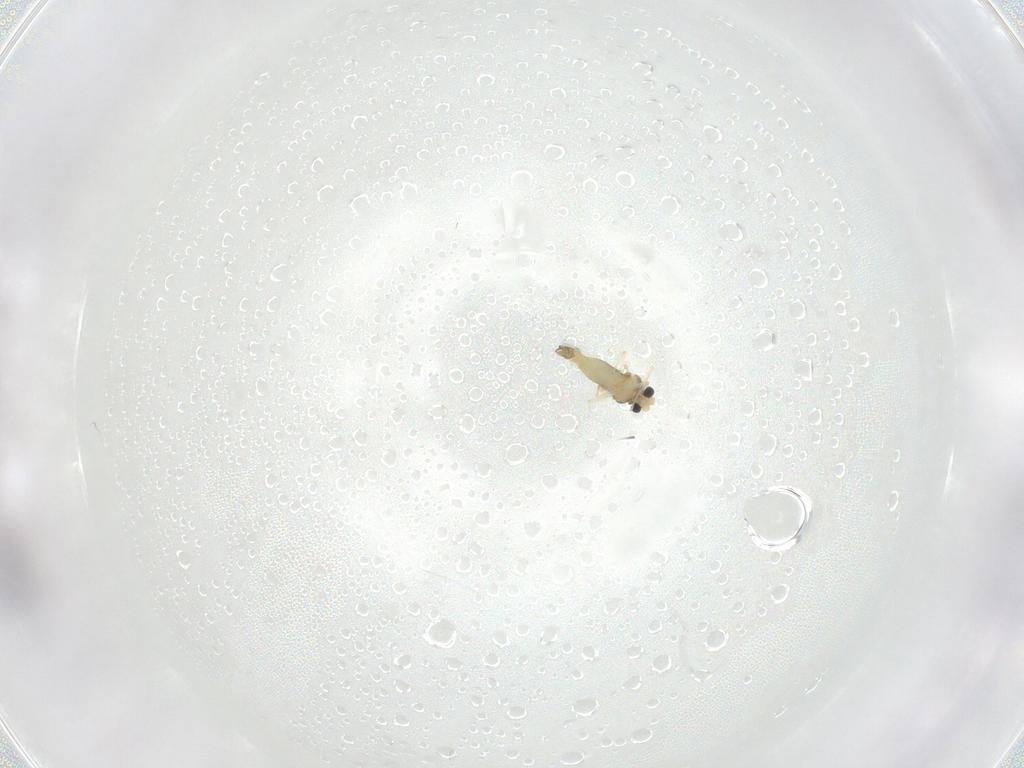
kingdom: Animalia
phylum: Arthropoda
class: Insecta
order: Diptera
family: Chironomidae
